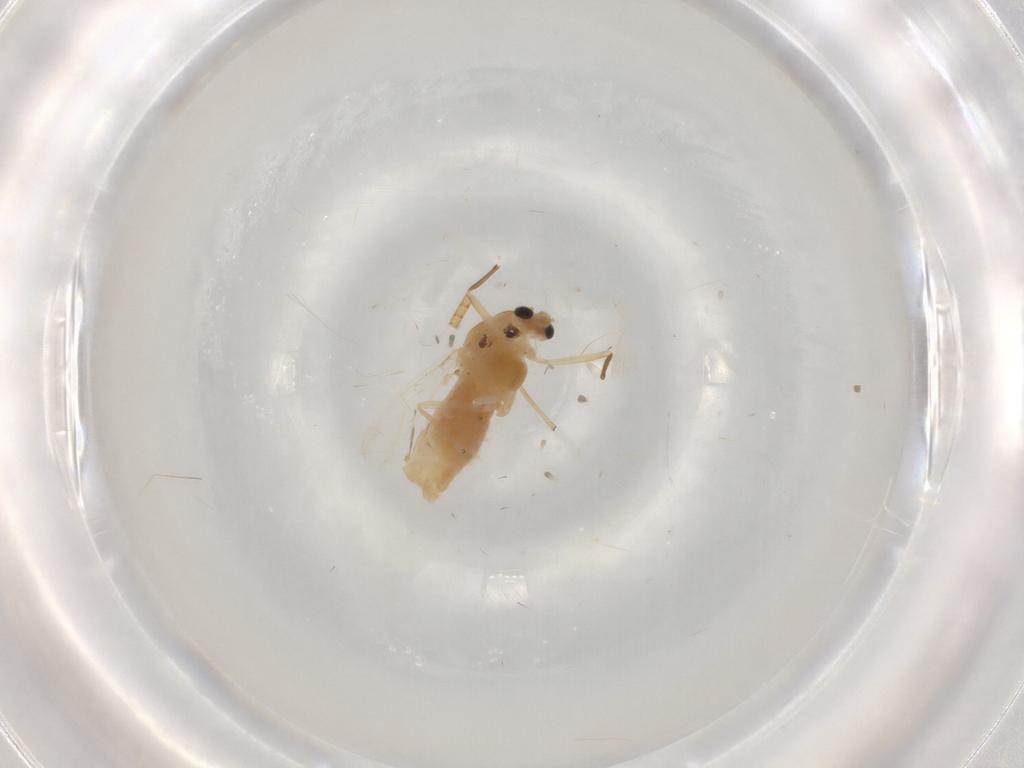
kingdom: Animalia
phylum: Arthropoda
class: Insecta
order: Diptera
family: Chironomidae
